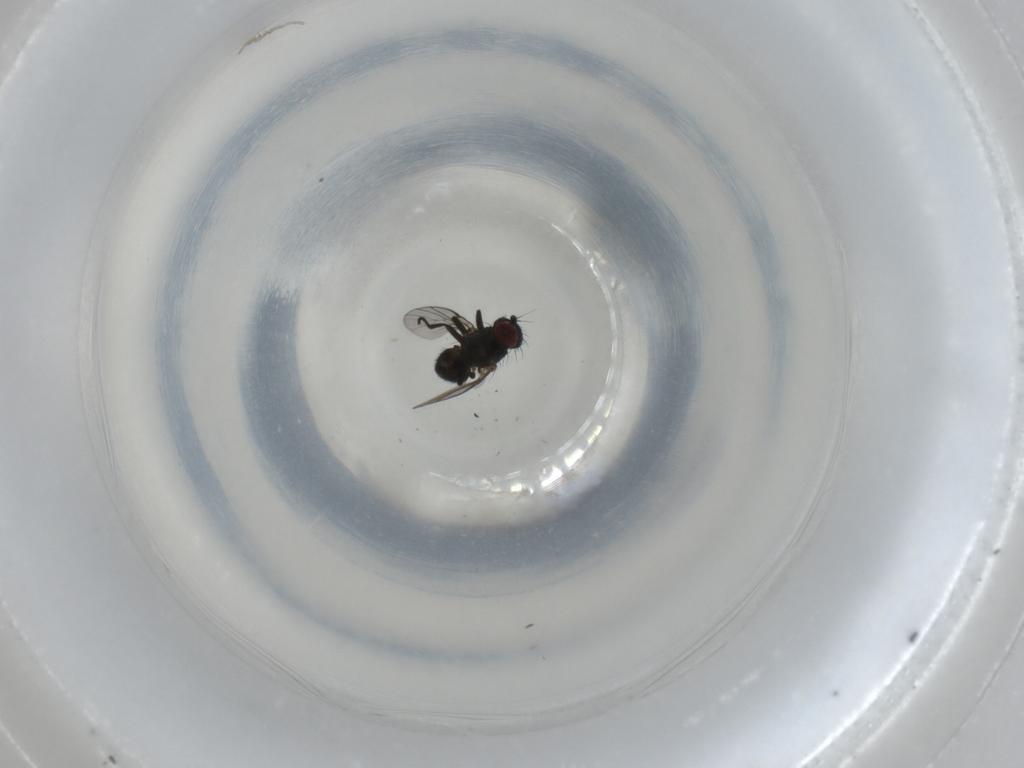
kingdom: Animalia
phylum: Arthropoda
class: Insecta
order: Diptera
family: Agromyzidae
